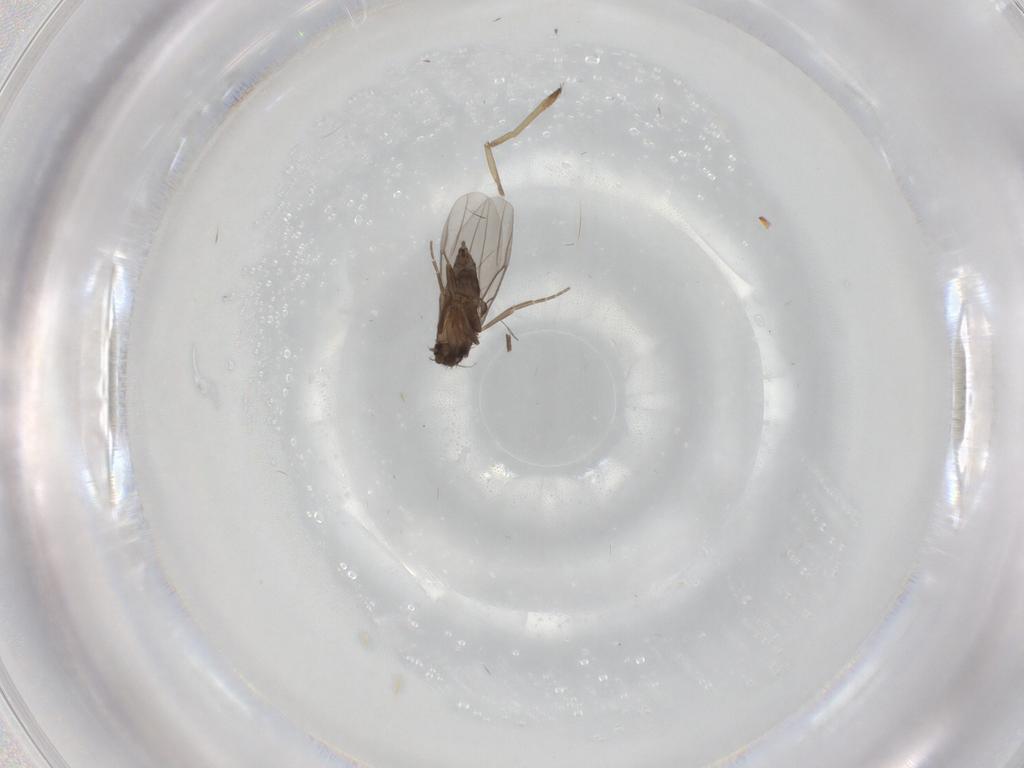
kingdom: Animalia
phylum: Arthropoda
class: Insecta
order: Diptera
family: Phoridae
